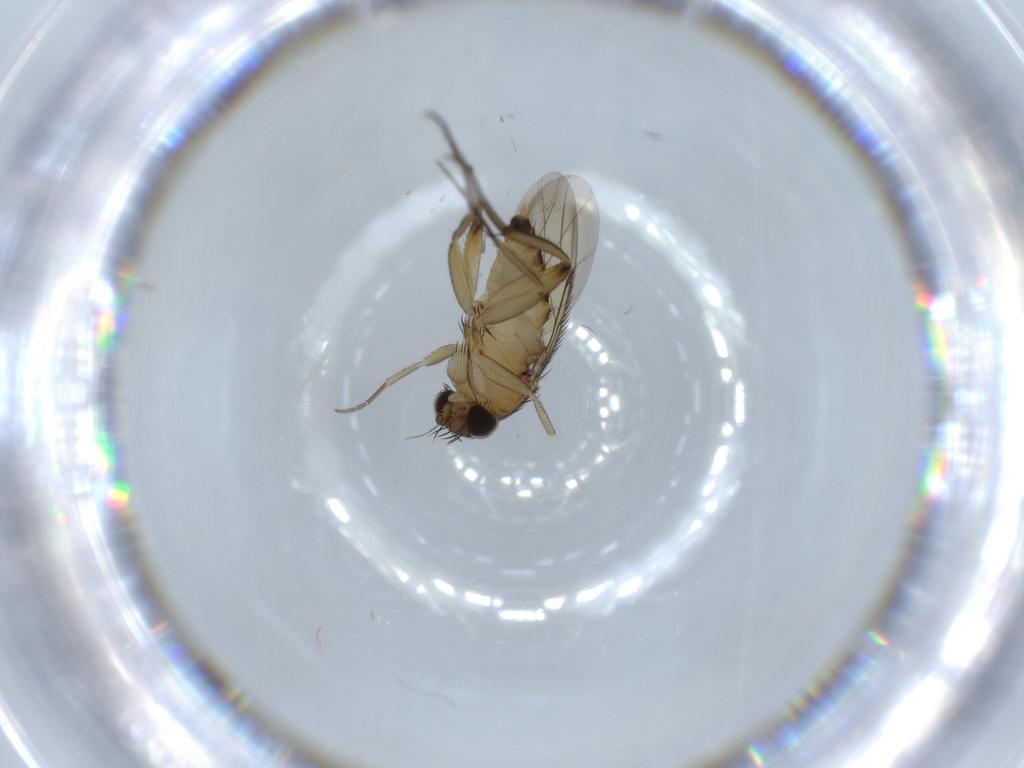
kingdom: Animalia
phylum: Arthropoda
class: Insecta
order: Diptera
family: Phoridae
